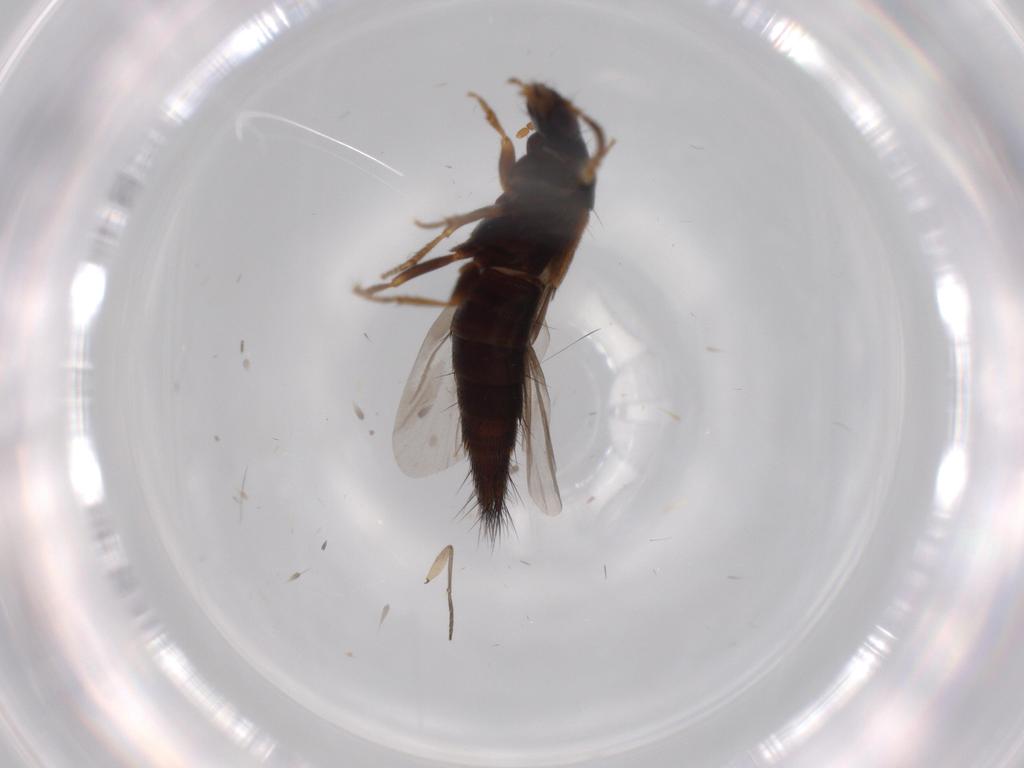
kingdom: Animalia
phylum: Arthropoda
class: Insecta
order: Coleoptera
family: Staphylinidae
